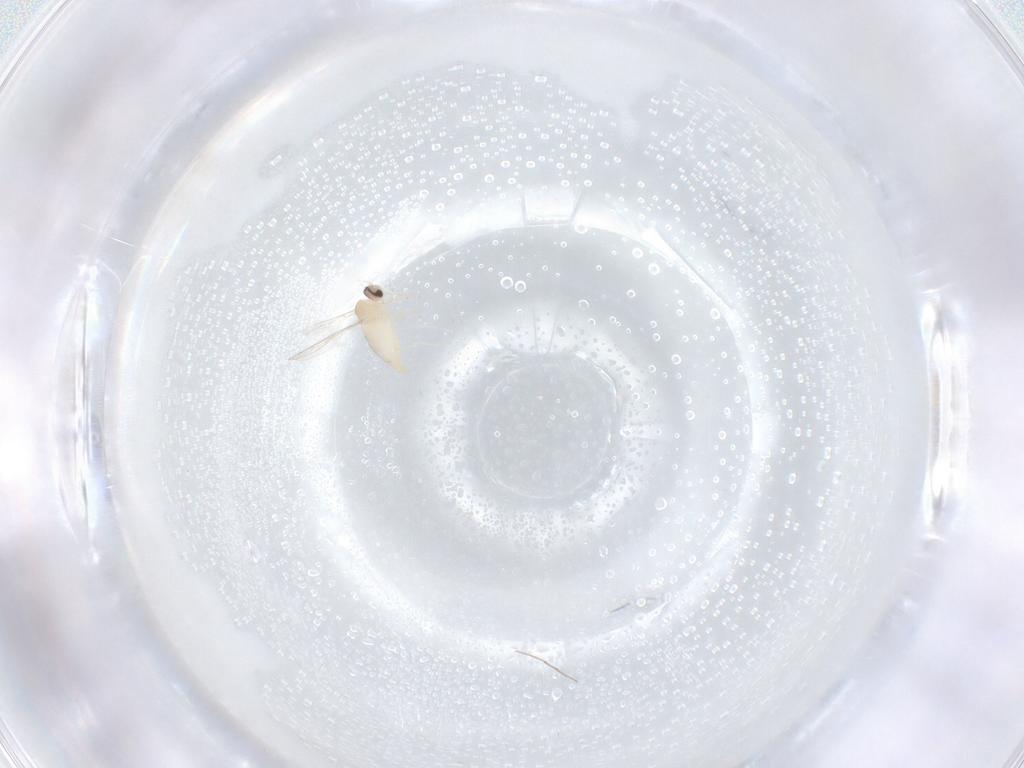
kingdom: Animalia
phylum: Arthropoda
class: Insecta
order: Diptera
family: Chironomidae
